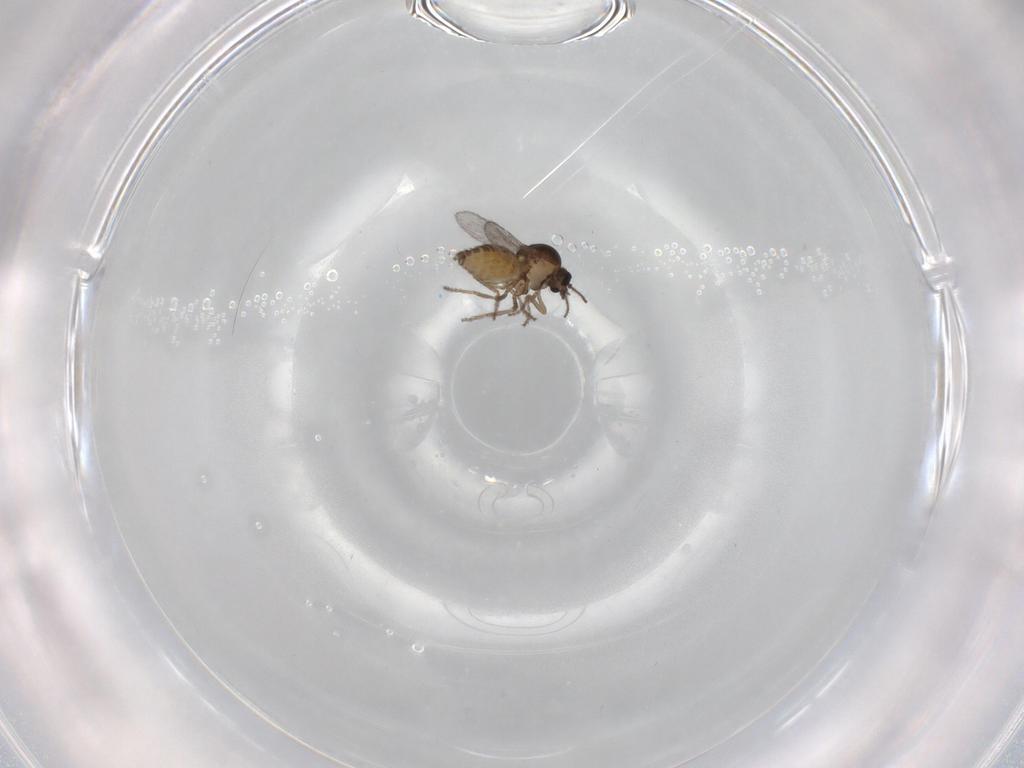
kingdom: Animalia
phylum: Arthropoda
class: Insecta
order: Diptera
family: Ceratopogonidae
